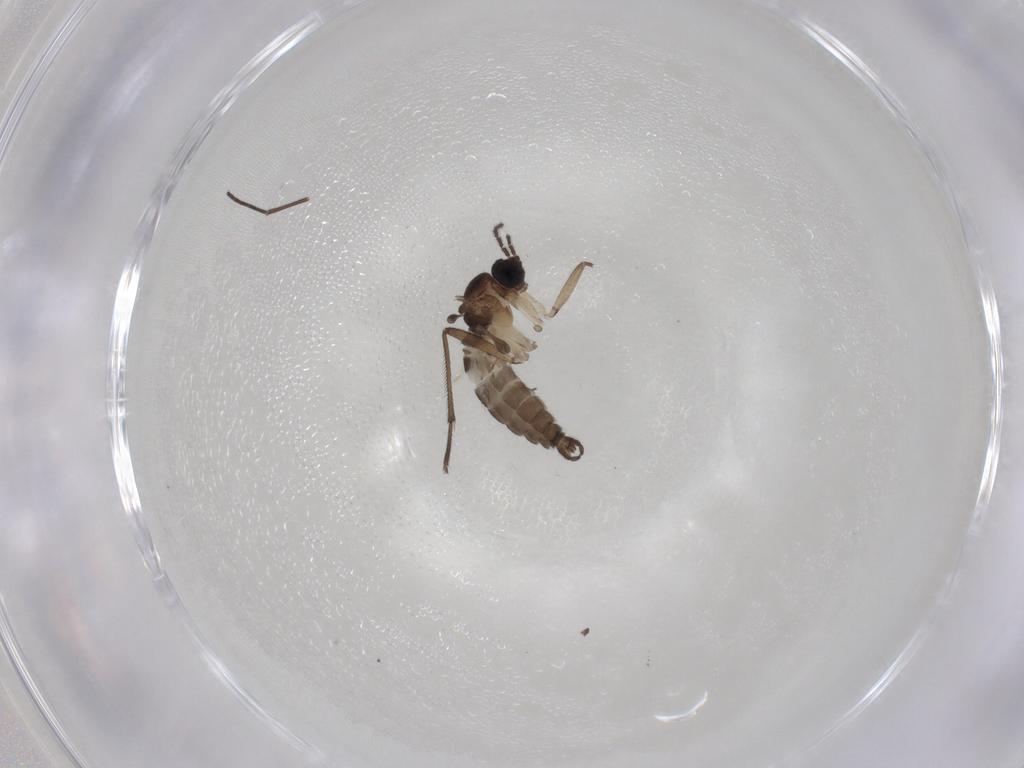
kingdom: Animalia
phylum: Arthropoda
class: Insecta
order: Diptera
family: Sciaridae
